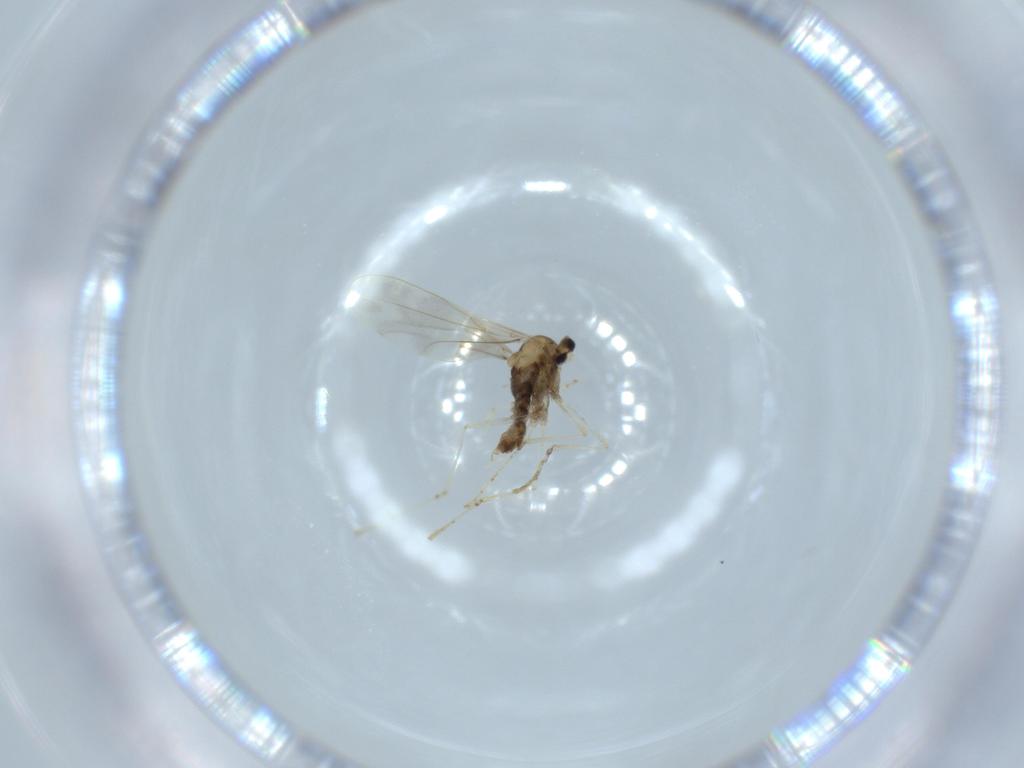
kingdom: Animalia
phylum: Arthropoda
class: Insecta
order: Diptera
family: Cecidomyiidae
